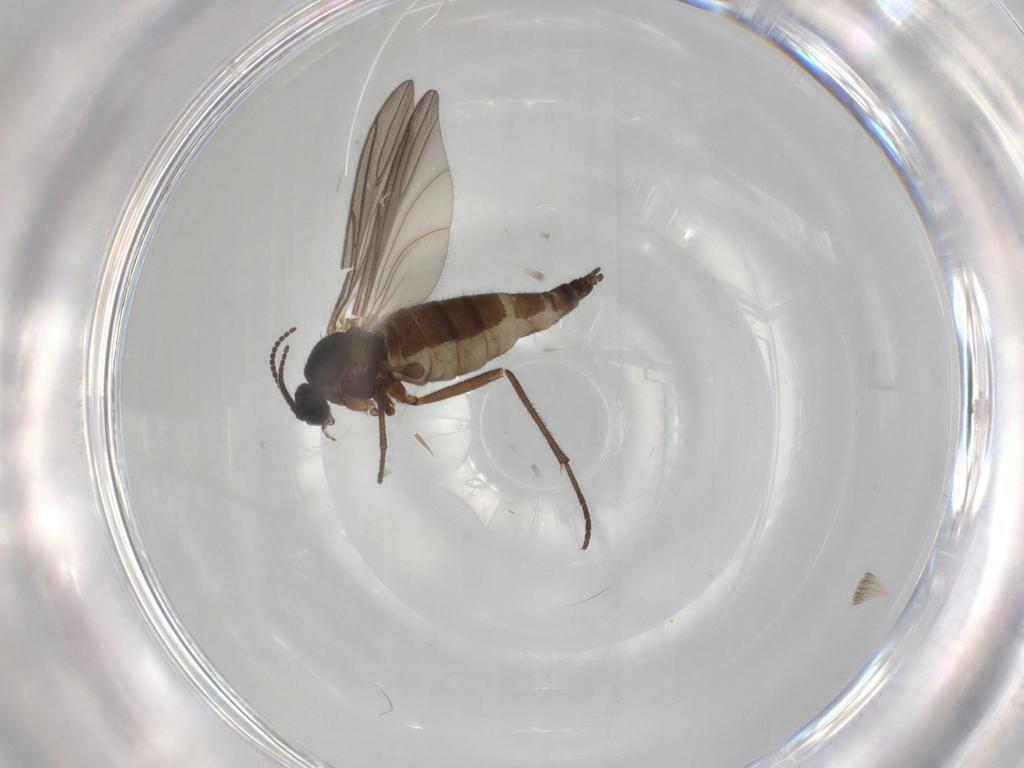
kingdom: Animalia
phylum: Arthropoda
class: Insecta
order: Diptera
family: Sciaridae
